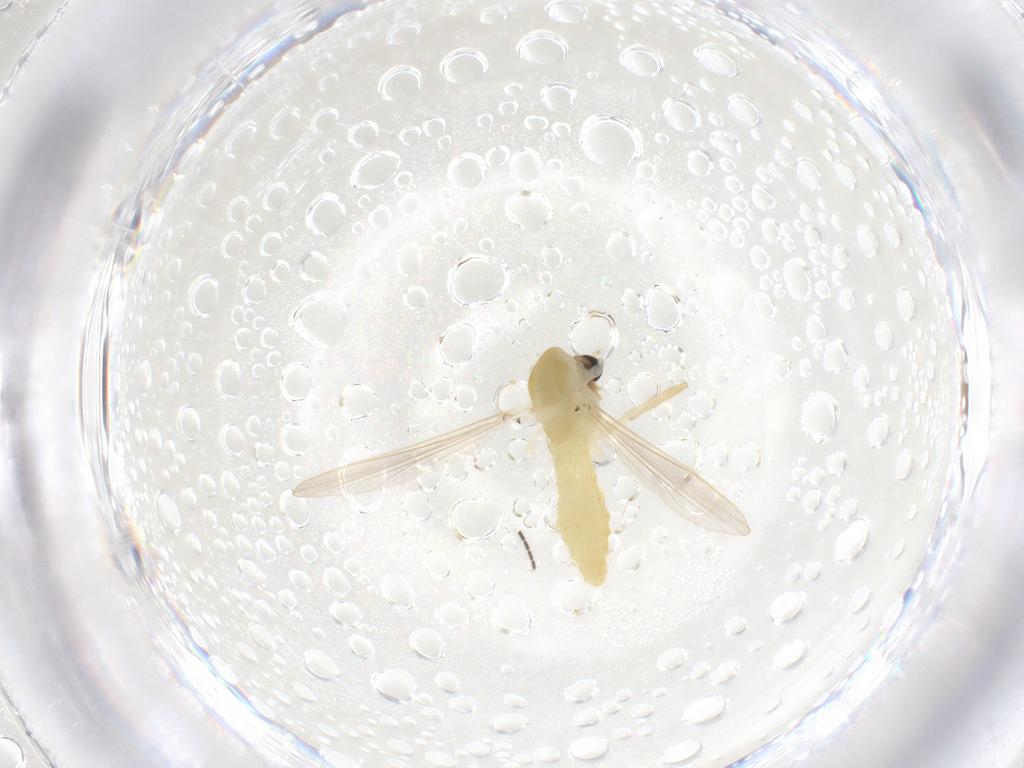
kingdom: Animalia
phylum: Arthropoda
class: Insecta
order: Diptera
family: Chironomidae
